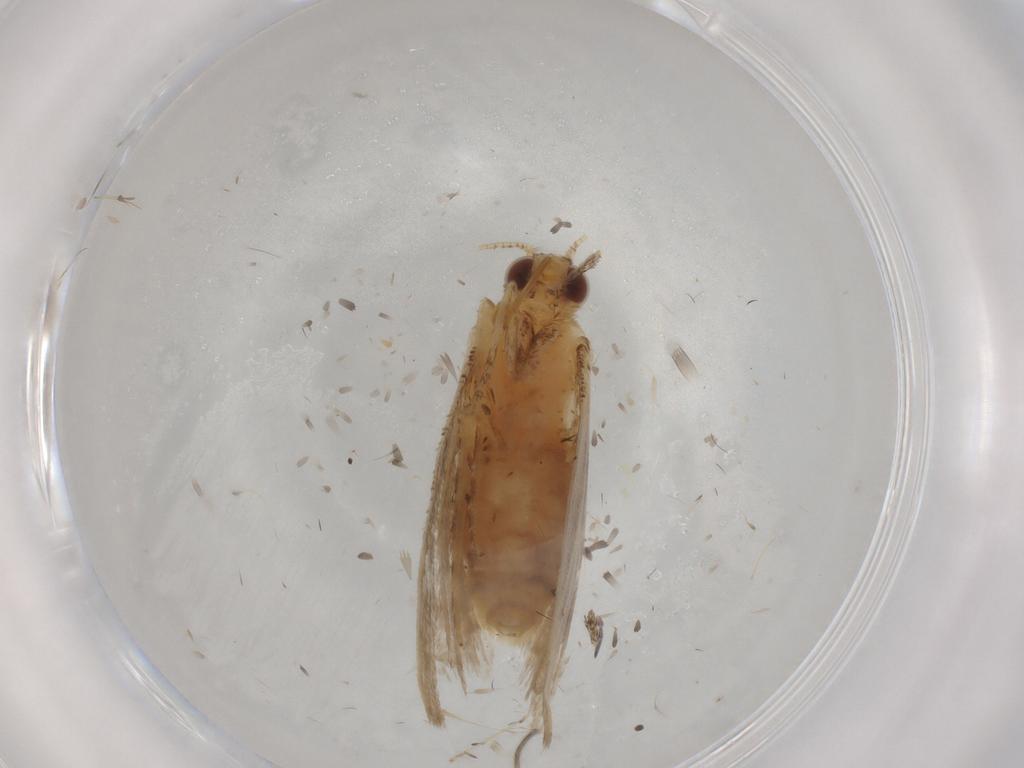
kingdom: Animalia
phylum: Arthropoda
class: Insecta
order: Lepidoptera
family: Erebidae
